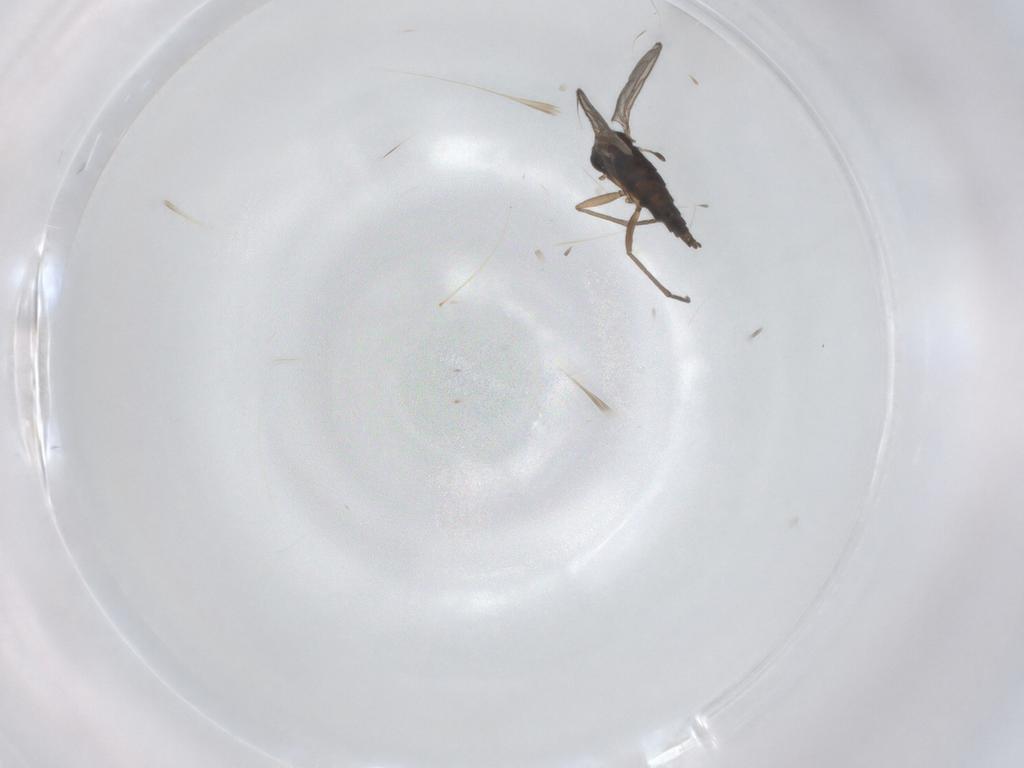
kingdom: Animalia
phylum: Arthropoda
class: Insecta
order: Diptera
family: Sciaridae
